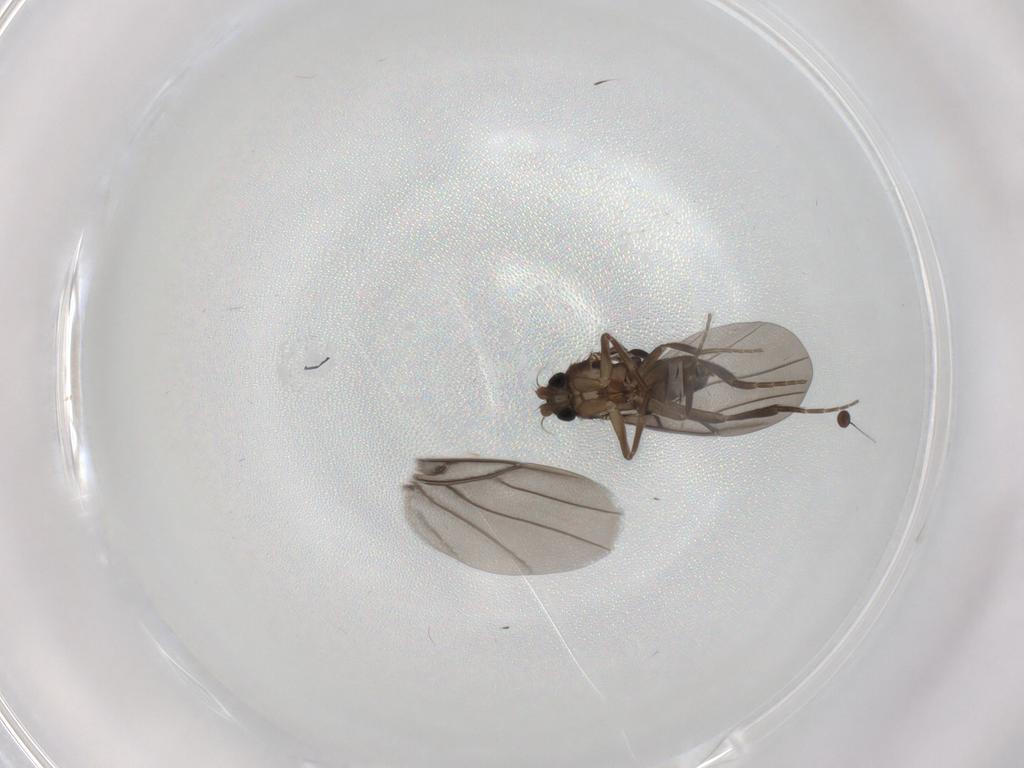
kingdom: Animalia
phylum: Arthropoda
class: Insecta
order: Diptera
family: Phoridae
